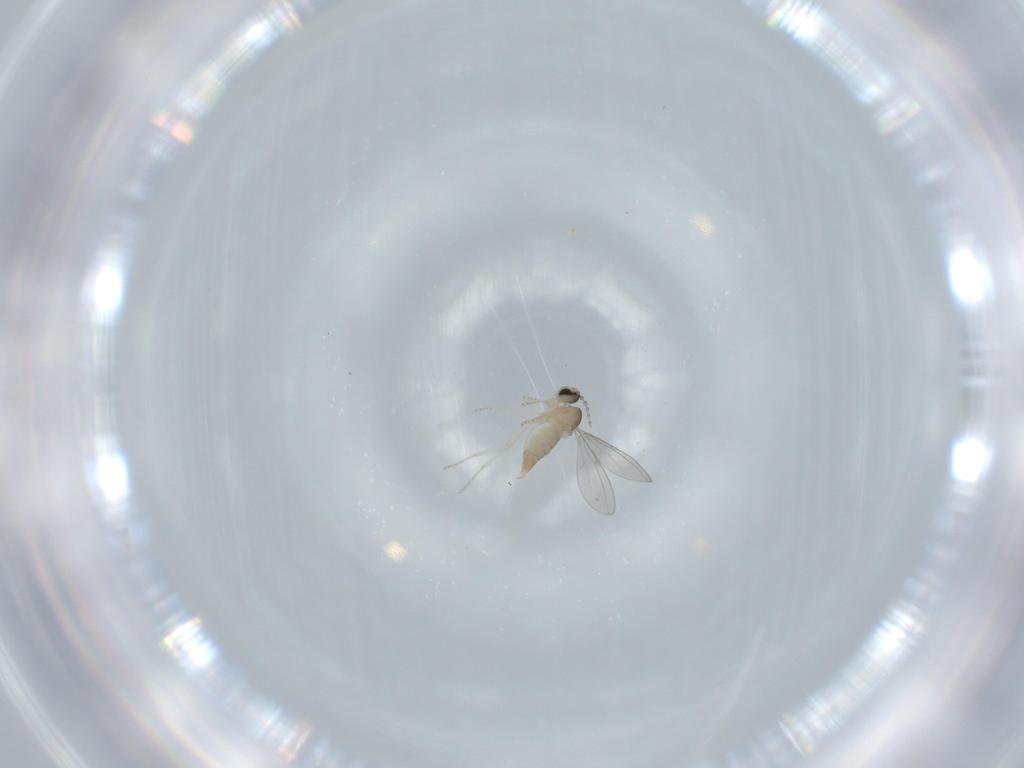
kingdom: Animalia
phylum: Arthropoda
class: Insecta
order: Diptera
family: Cecidomyiidae
